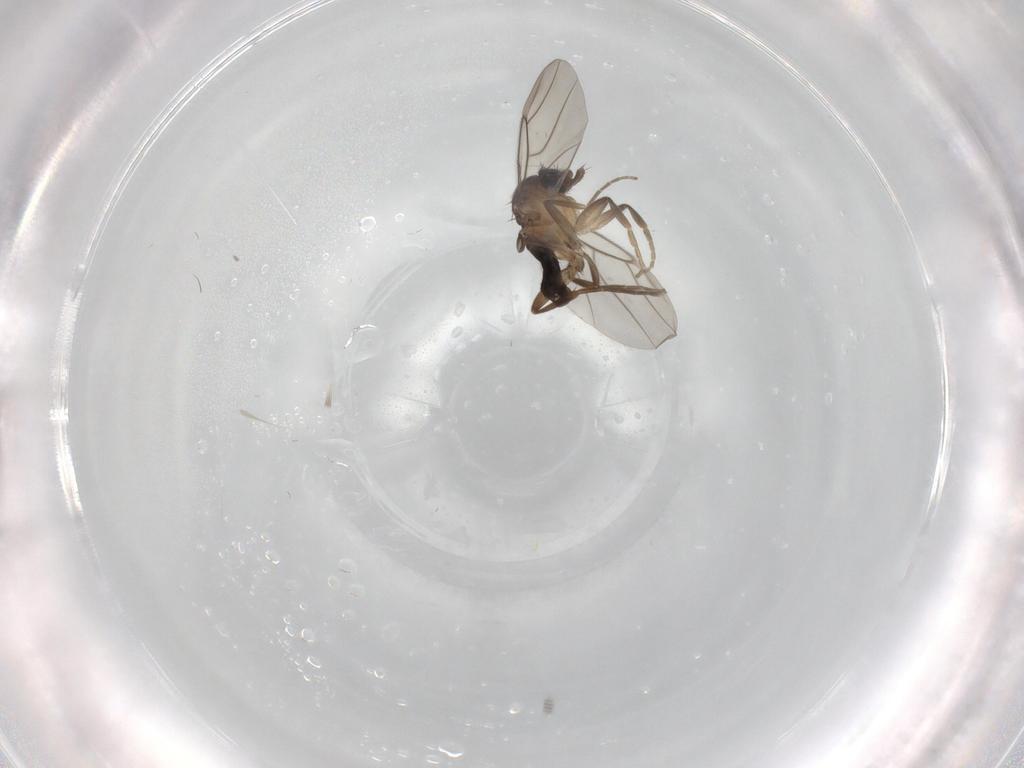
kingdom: Animalia
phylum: Arthropoda
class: Insecta
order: Diptera
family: Phoridae
